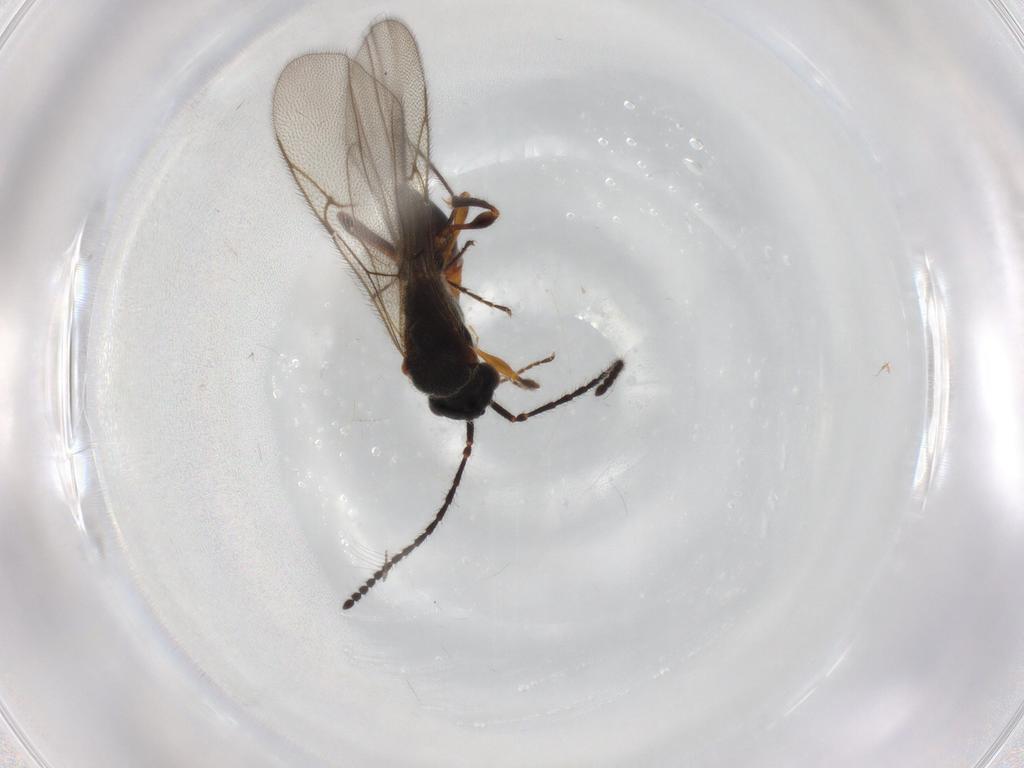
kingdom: Animalia
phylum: Arthropoda
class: Insecta
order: Hymenoptera
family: Diapriidae
